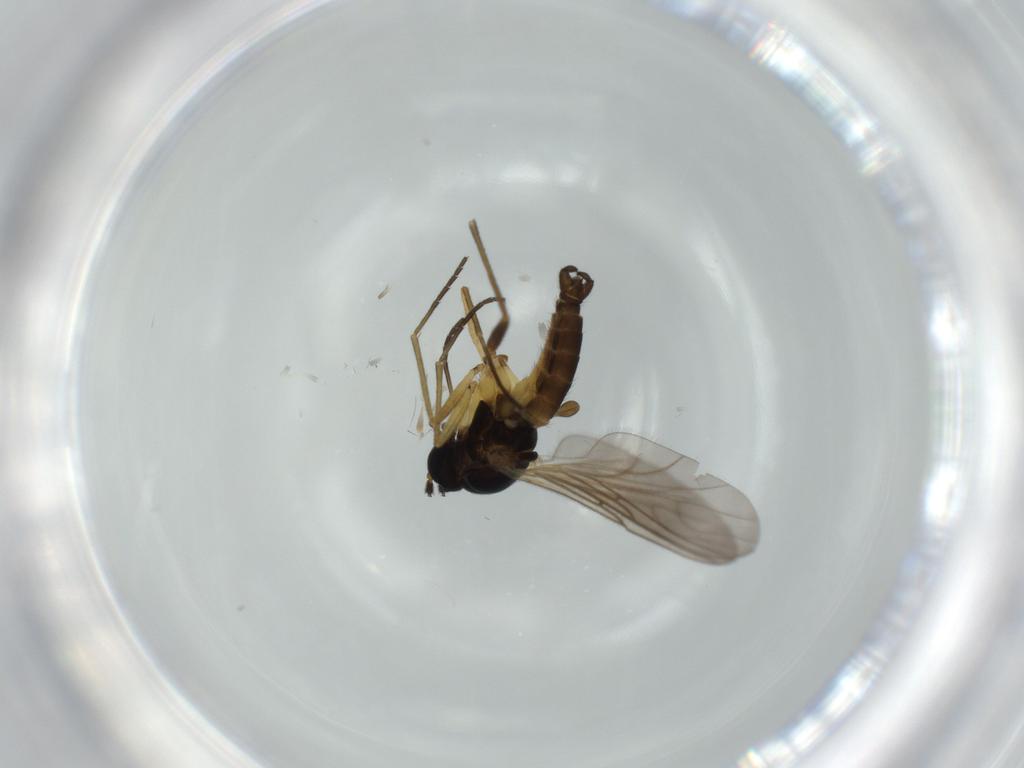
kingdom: Animalia
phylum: Arthropoda
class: Insecta
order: Diptera
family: Sciaridae
